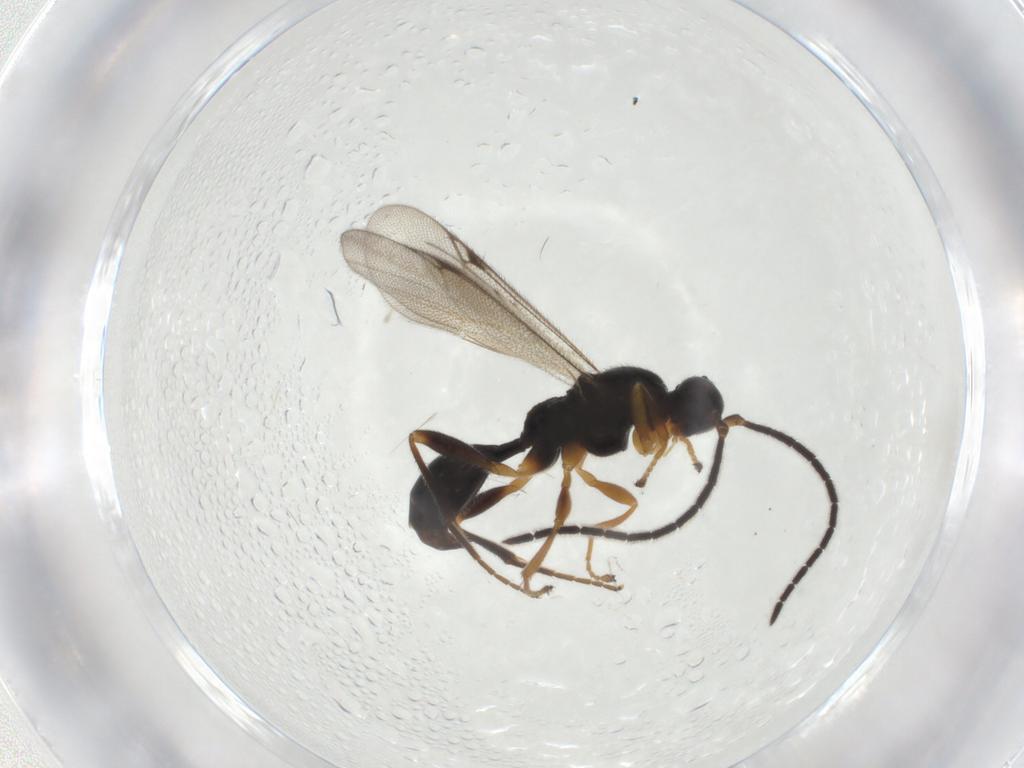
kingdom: Animalia
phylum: Arthropoda
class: Insecta
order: Hymenoptera
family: Proctotrupidae
